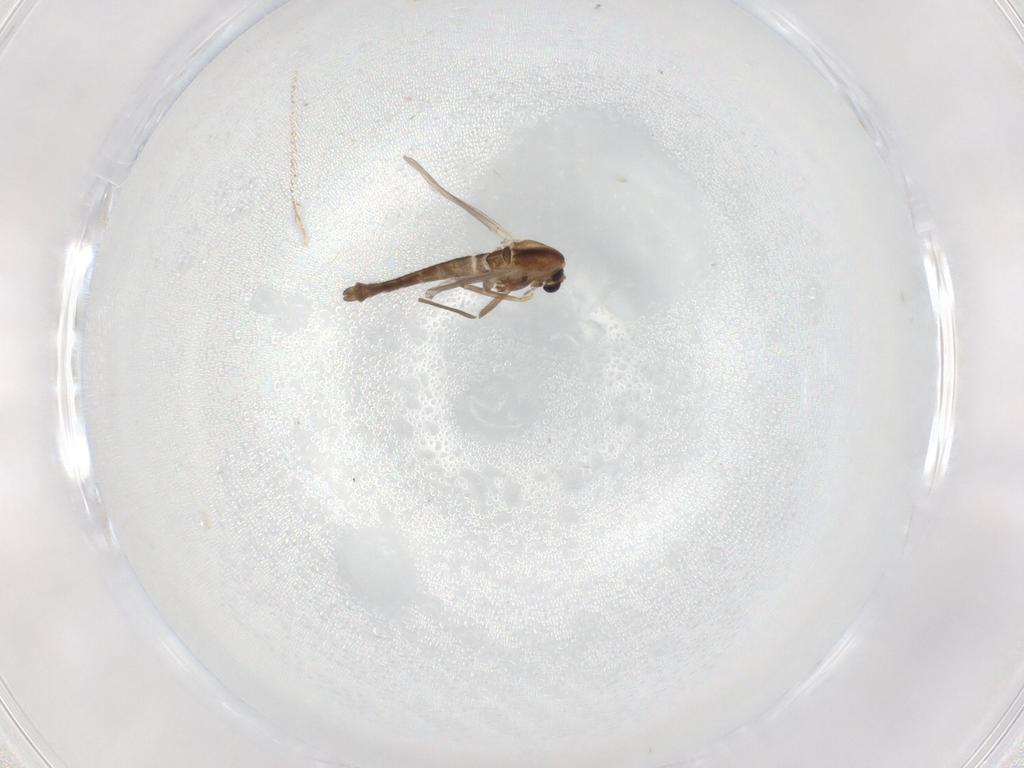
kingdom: Animalia
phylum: Arthropoda
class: Insecta
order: Diptera
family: Chironomidae
